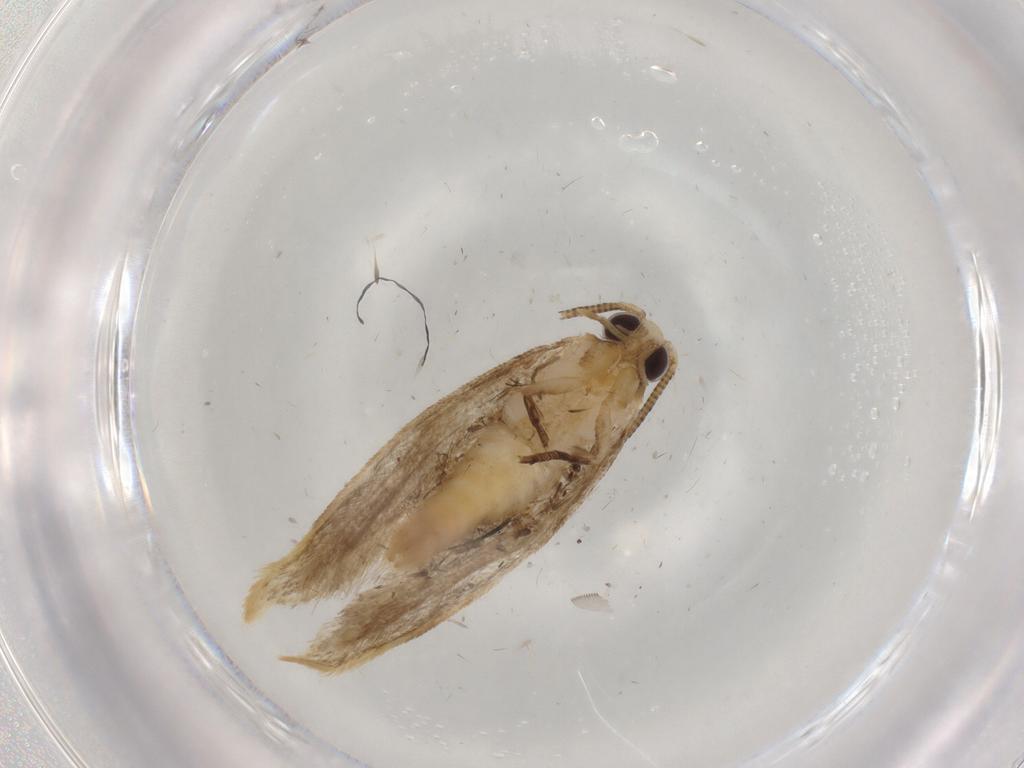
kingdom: Animalia
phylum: Arthropoda
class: Insecta
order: Lepidoptera
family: Tineidae
